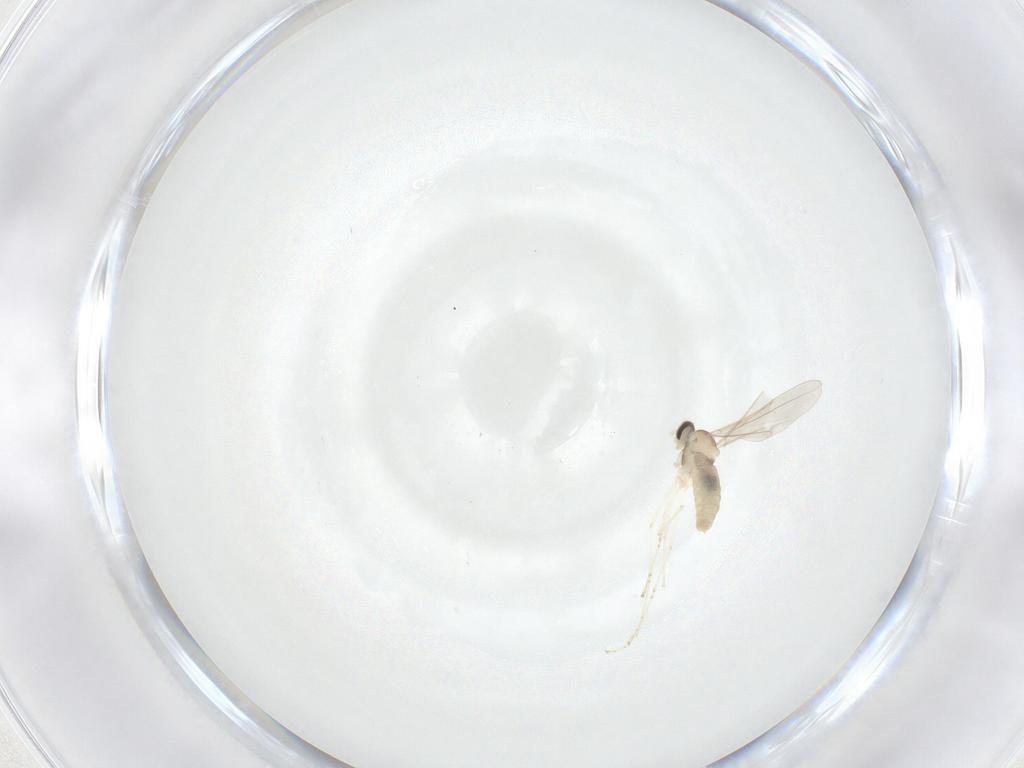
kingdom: Animalia
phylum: Arthropoda
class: Insecta
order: Diptera
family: Cecidomyiidae
